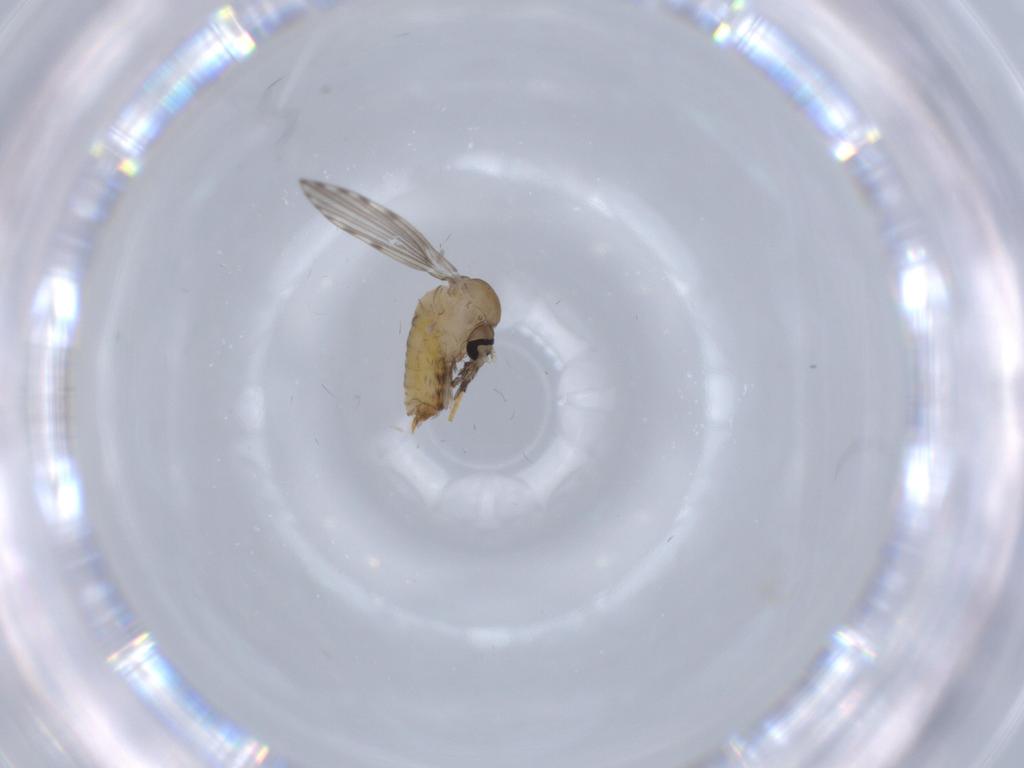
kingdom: Animalia
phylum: Arthropoda
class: Insecta
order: Diptera
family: Psychodidae
